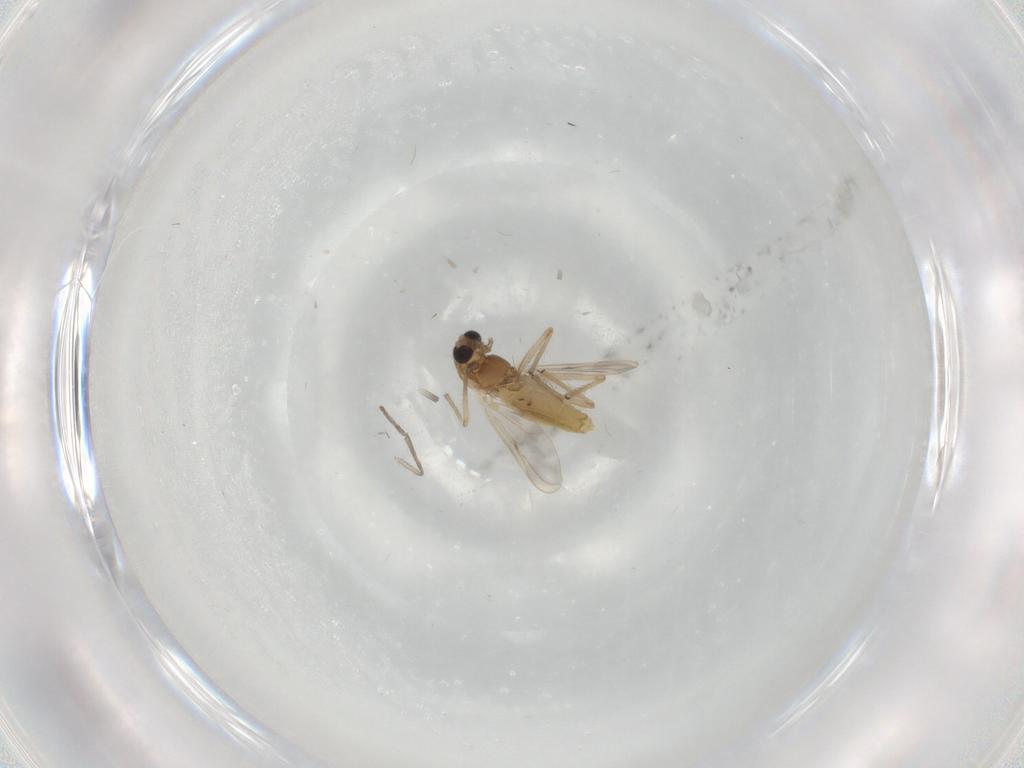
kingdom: Animalia
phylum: Arthropoda
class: Insecta
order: Diptera
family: Chironomidae
